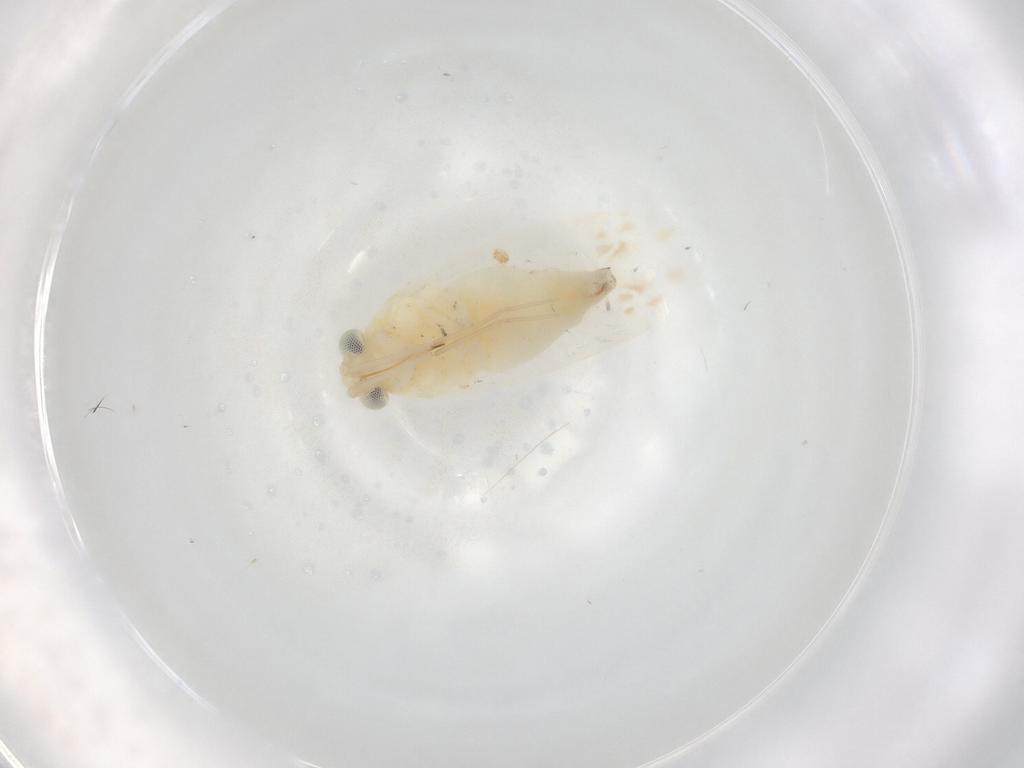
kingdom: Animalia
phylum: Arthropoda
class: Insecta
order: Hemiptera
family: Miridae
